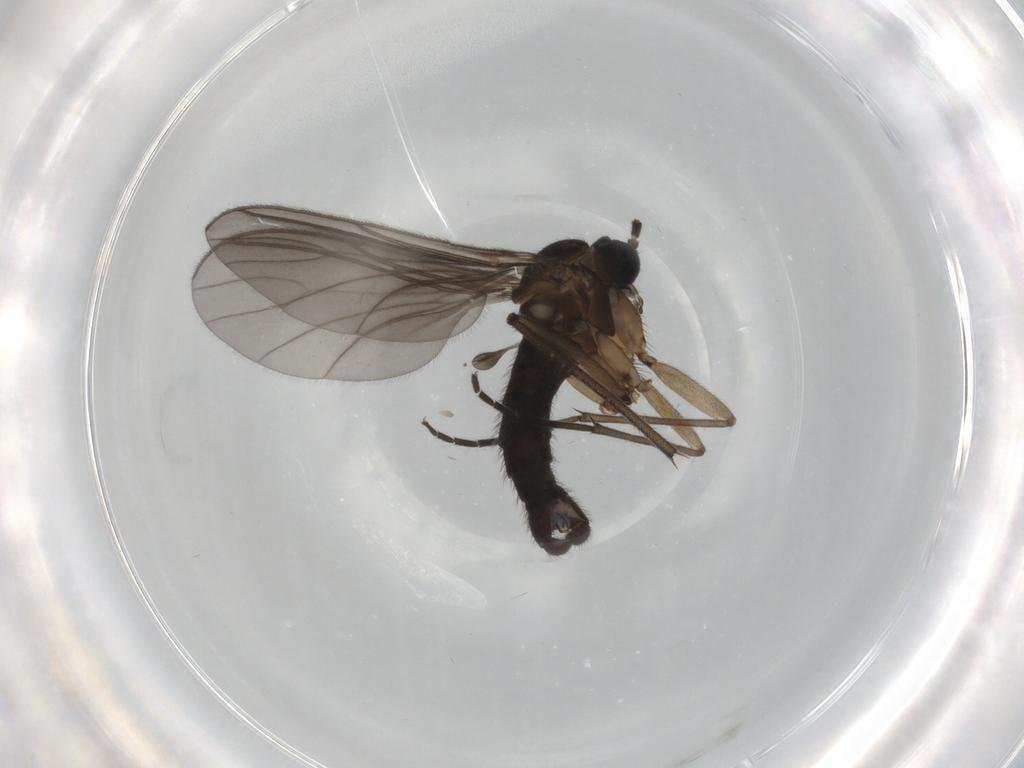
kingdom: Animalia
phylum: Arthropoda
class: Insecta
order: Diptera
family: Sciaridae
